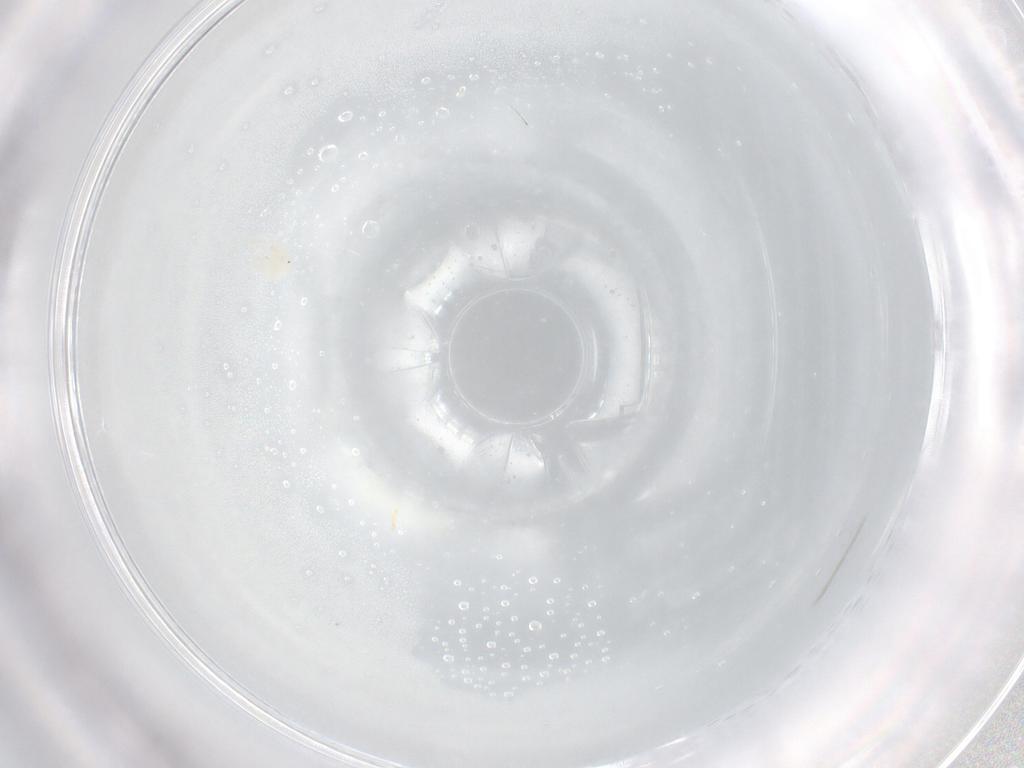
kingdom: Animalia
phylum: Arthropoda
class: Arachnida
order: Trombidiformes
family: Anystidae
